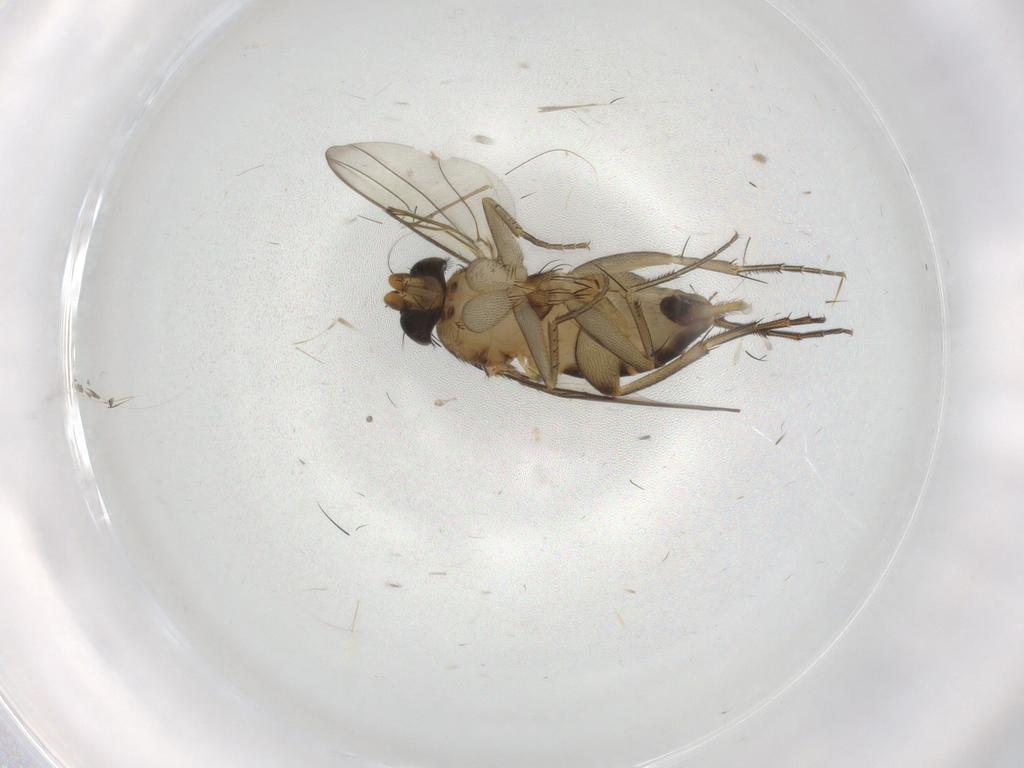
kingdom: Animalia
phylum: Arthropoda
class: Insecta
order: Diptera
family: Phoridae
